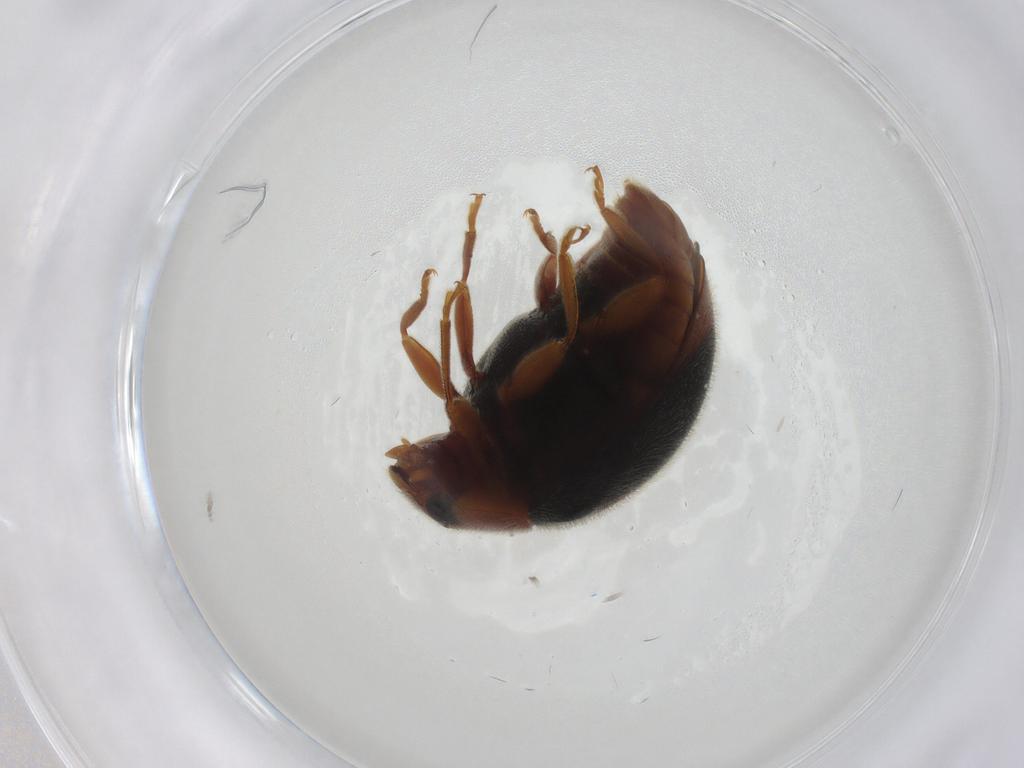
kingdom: Animalia
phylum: Arthropoda
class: Insecta
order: Coleoptera
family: Coccinellidae
